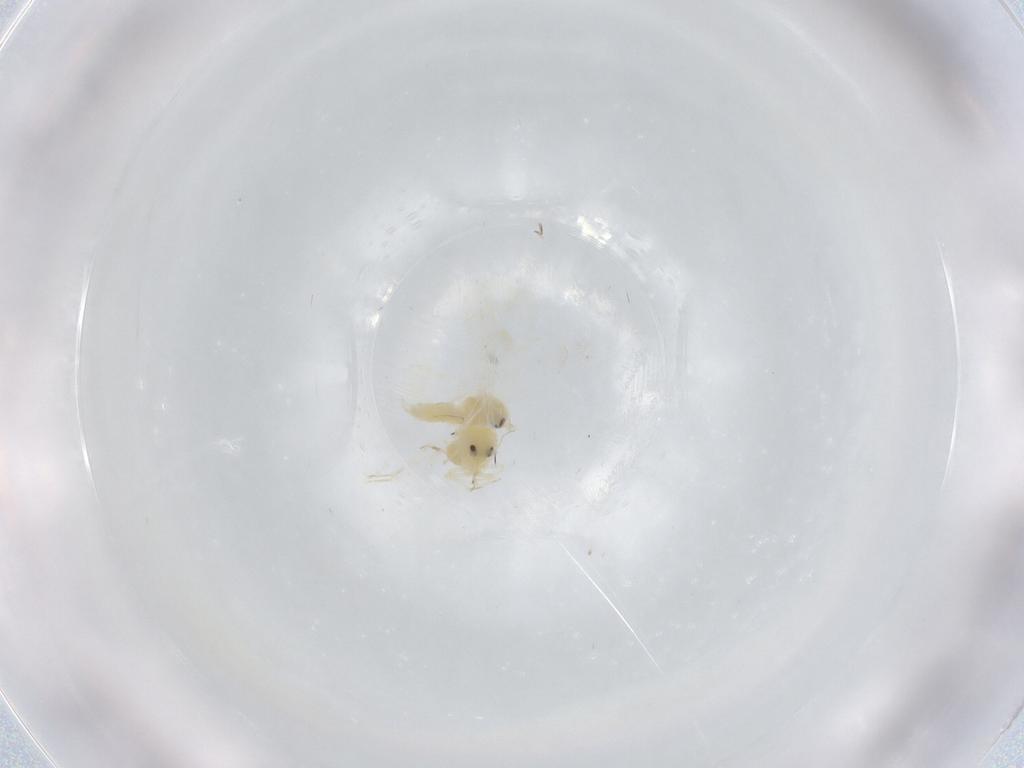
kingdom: Animalia
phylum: Arthropoda
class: Insecta
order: Hemiptera
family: Aleyrodidae
